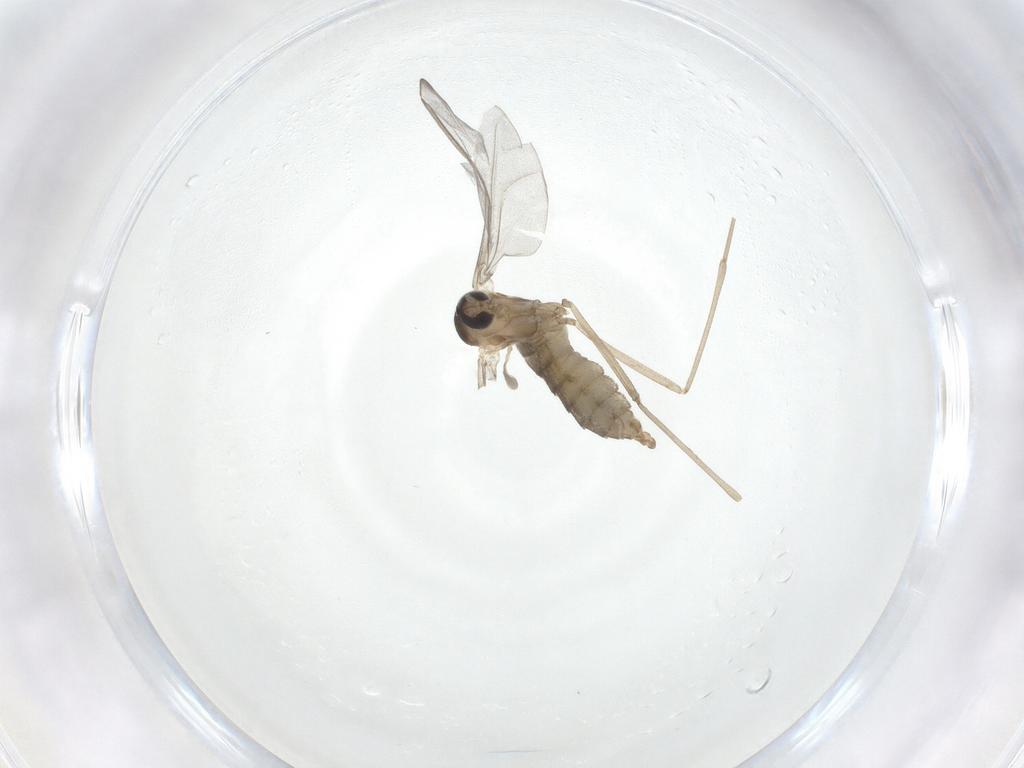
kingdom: Animalia
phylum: Arthropoda
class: Insecta
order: Diptera
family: Cecidomyiidae
